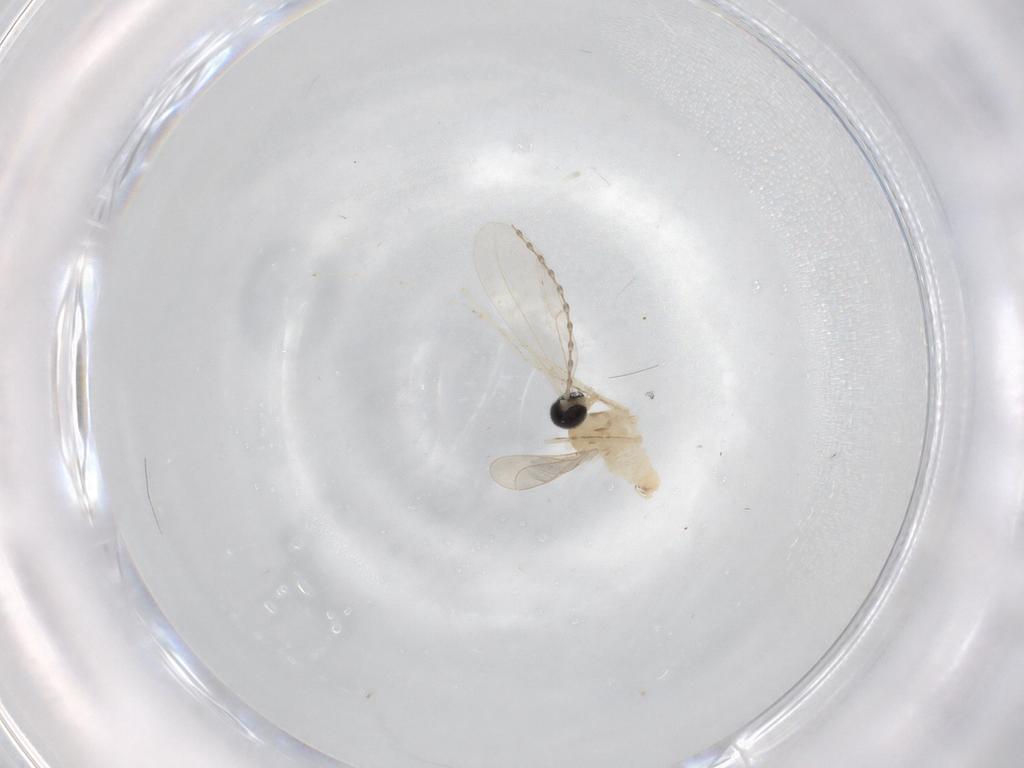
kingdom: Animalia
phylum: Arthropoda
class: Insecta
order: Diptera
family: Cecidomyiidae
